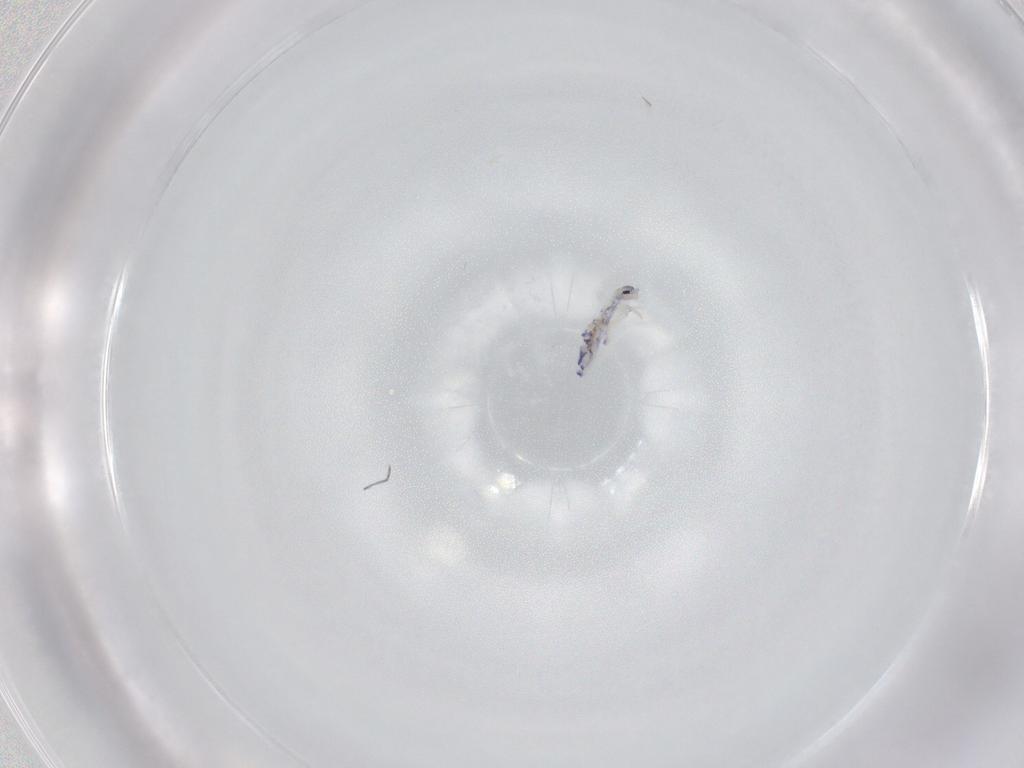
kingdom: Animalia
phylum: Arthropoda
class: Collembola
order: Entomobryomorpha
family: Entomobryidae
